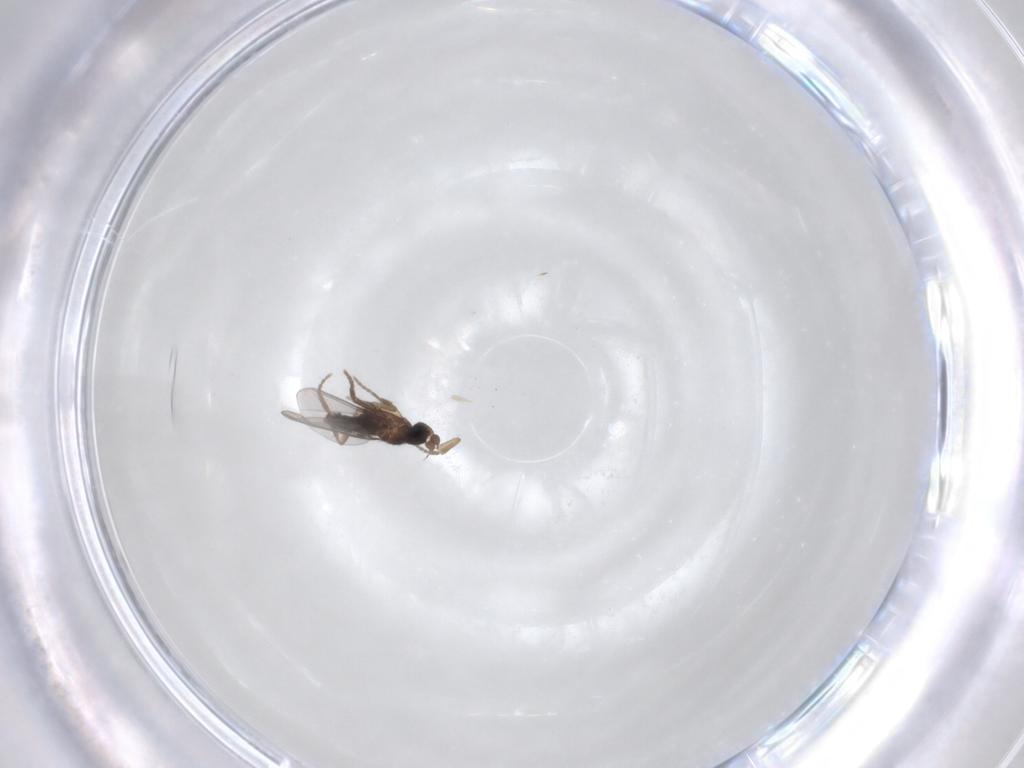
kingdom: Animalia
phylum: Arthropoda
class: Insecta
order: Diptera
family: Phoridae
